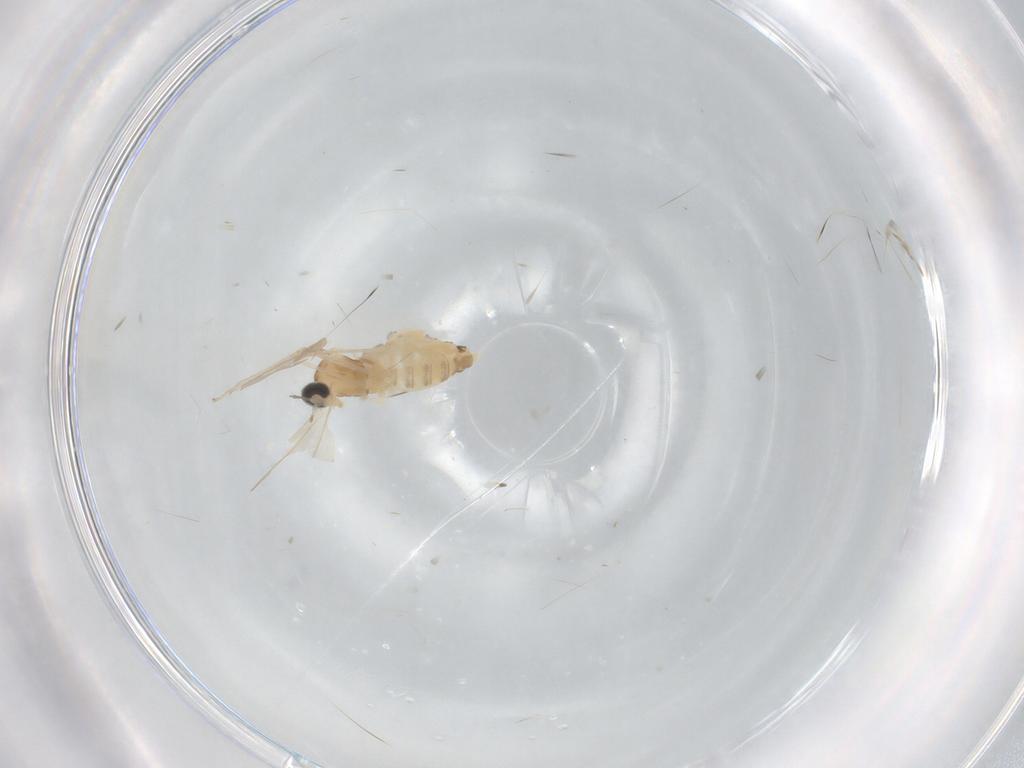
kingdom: Animalia
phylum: Arthropoda
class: Insecta
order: Diptera
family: Cecidomyiidae
